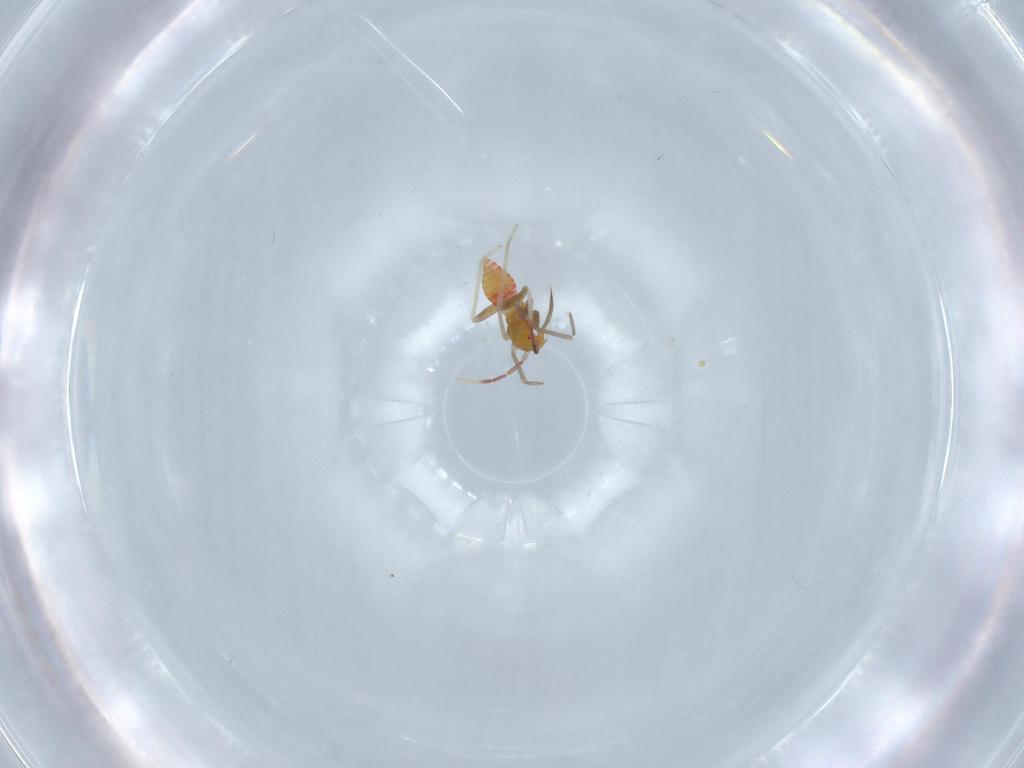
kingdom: Animalia
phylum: Arthropoda
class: Insecta
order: Hemiptera
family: Miridae
